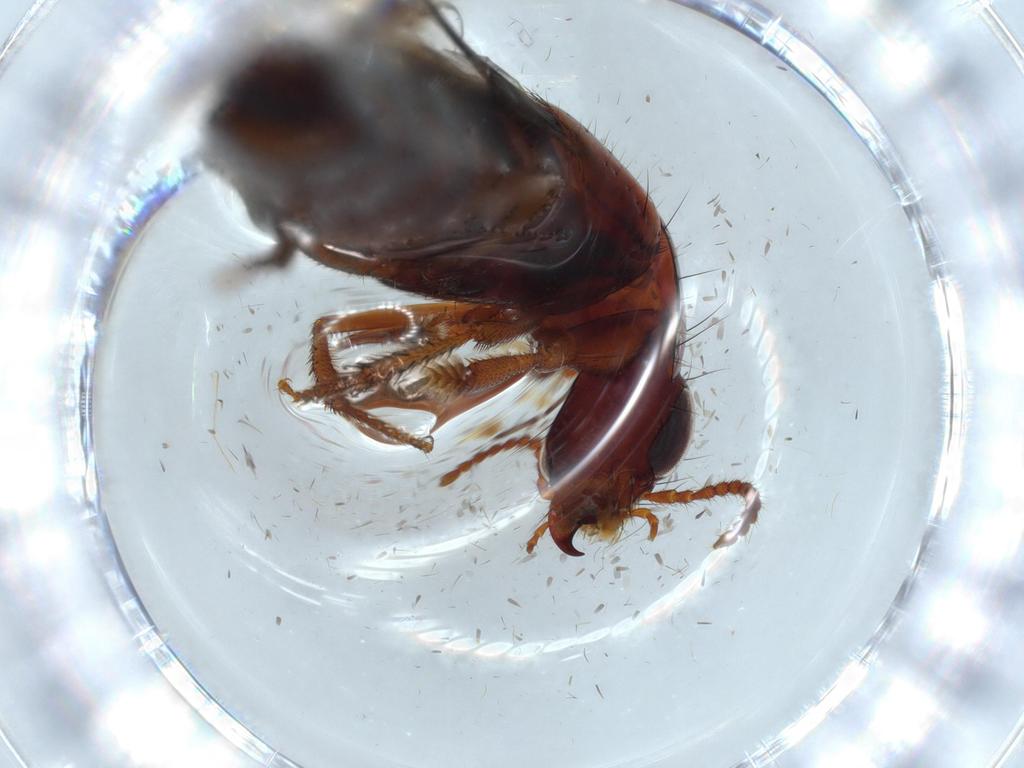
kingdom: Animalia
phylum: Arthropoda
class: Insecta
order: Coleoptera
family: Staphylinidae
